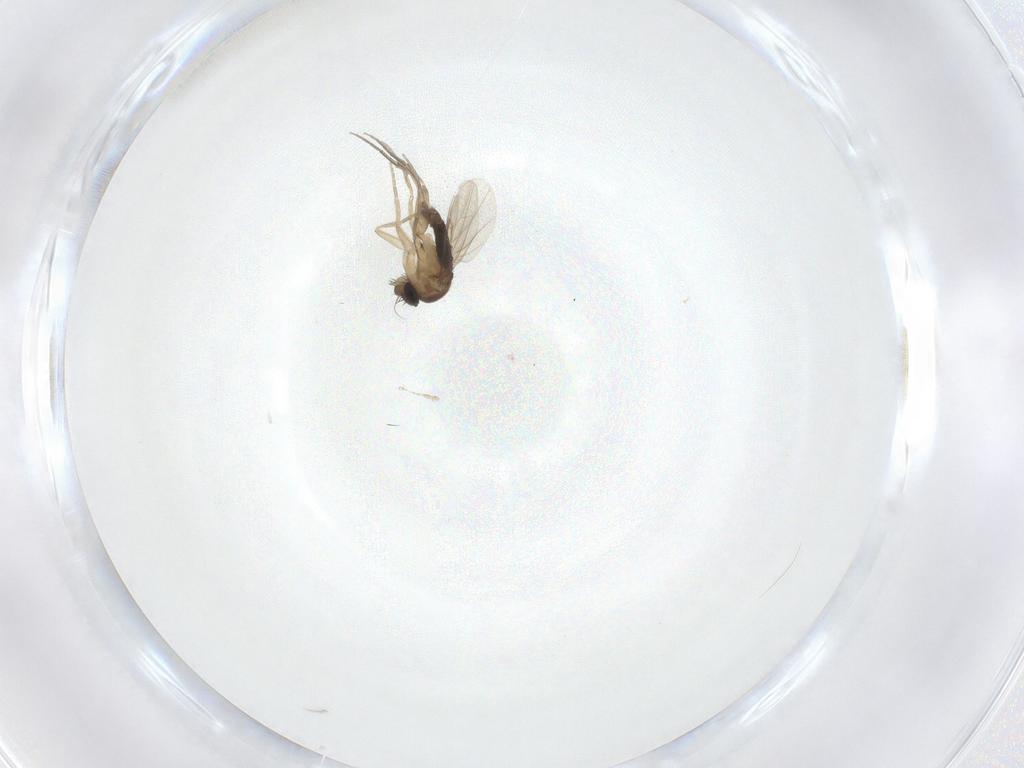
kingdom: Animalia
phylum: Arthropoda
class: Insecta
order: Diptera
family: Phoridae
